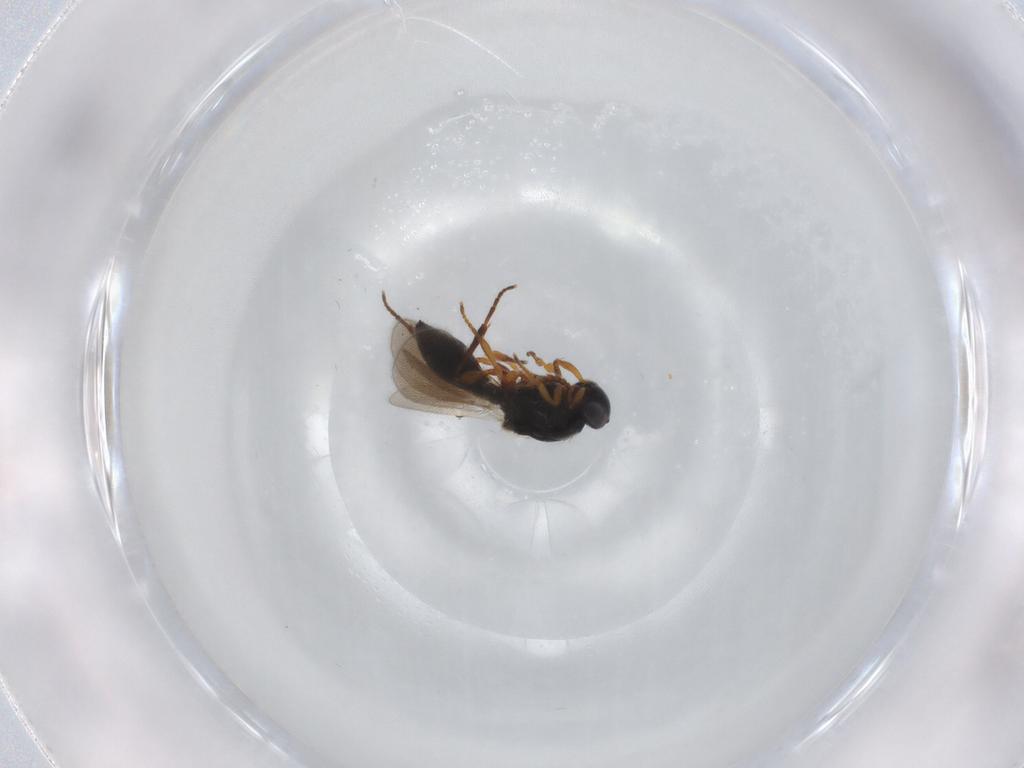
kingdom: Animalia
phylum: Arthropoda
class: Insecta
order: Hymenoptera
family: Platygastridae
